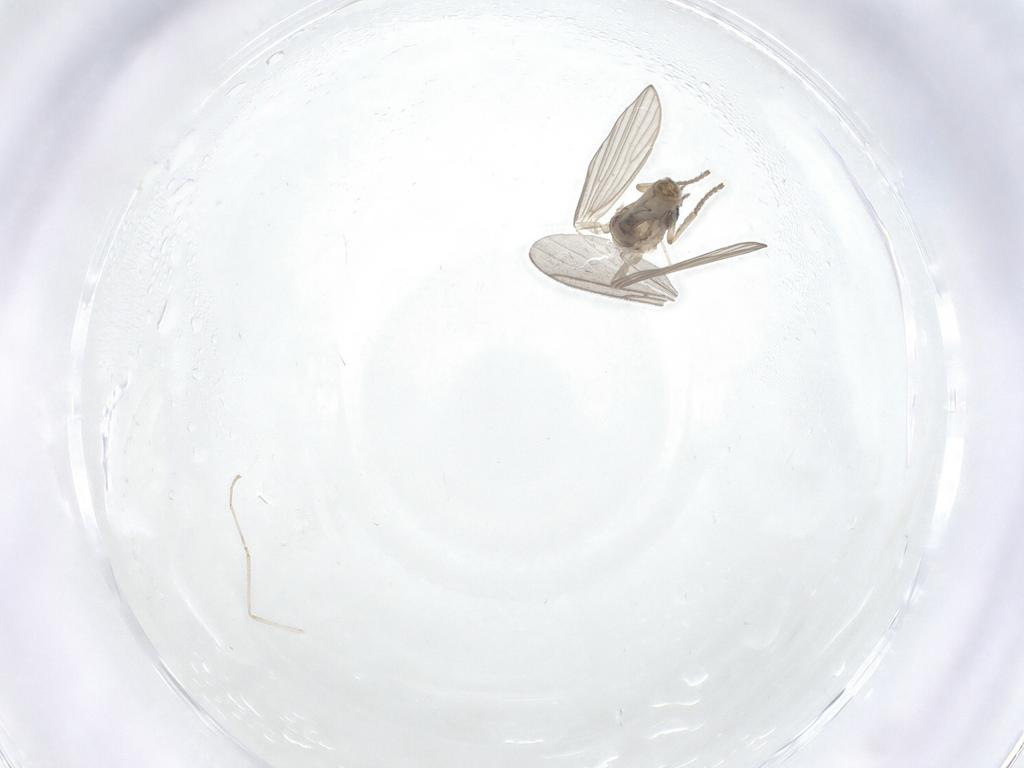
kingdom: Animalia
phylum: Arthropoda
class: Insecta
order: Diptera
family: Psychodidae
